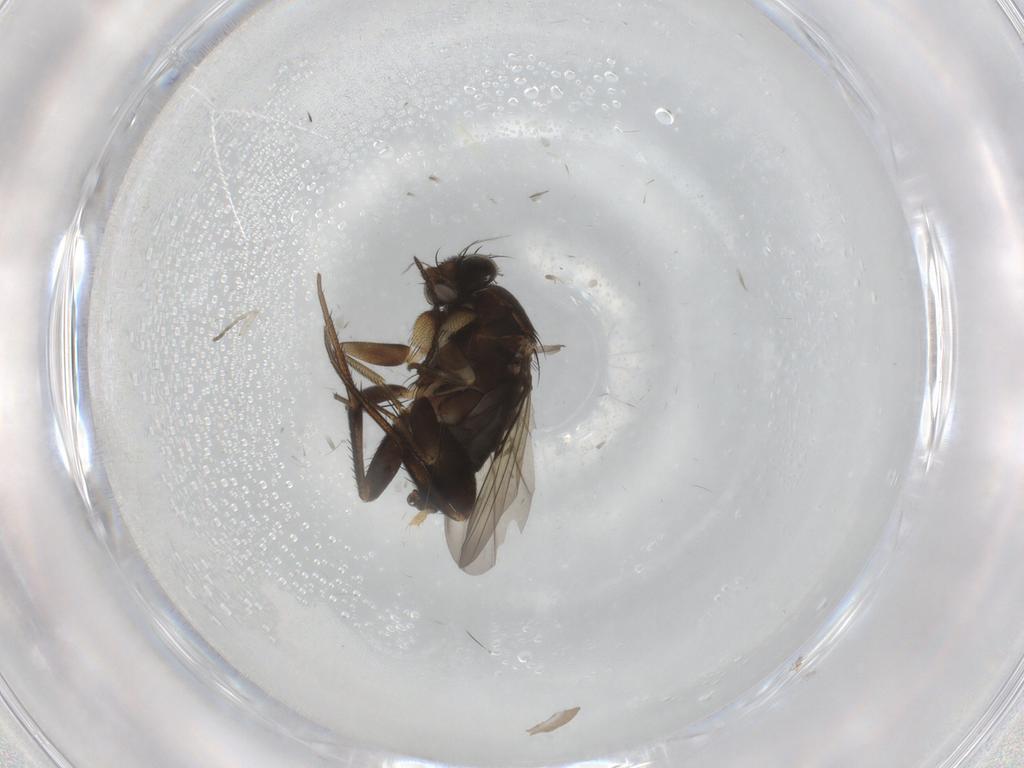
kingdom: Animalia
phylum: Arthropoda
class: Insecta
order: Diptera
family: Phoridae
